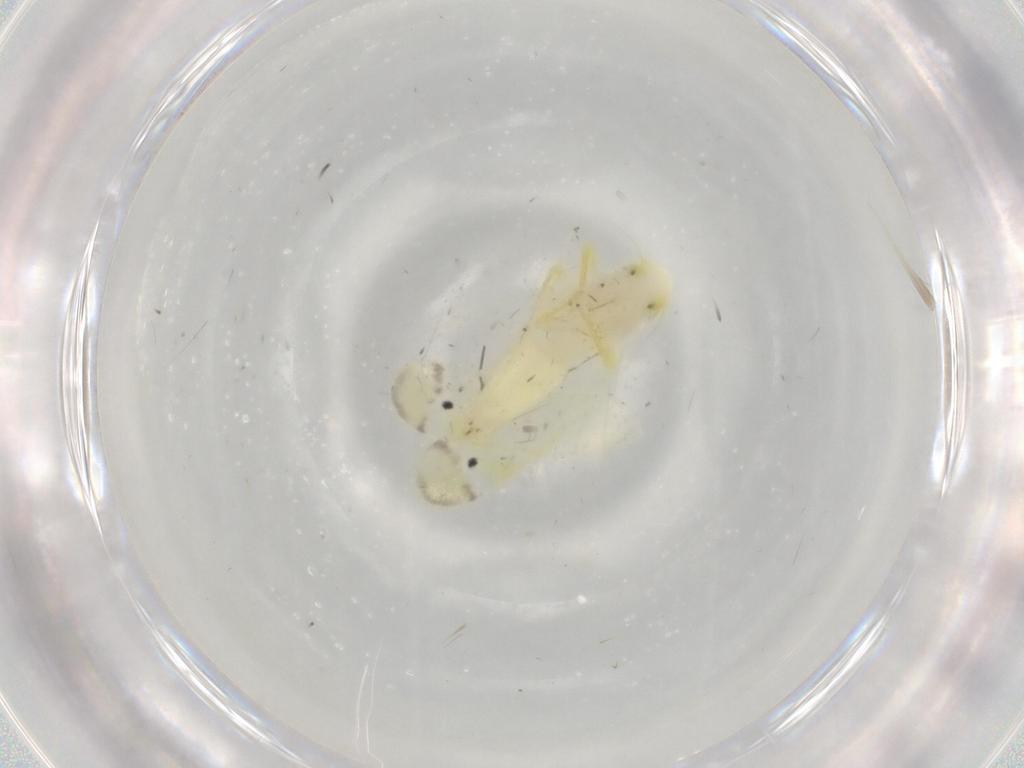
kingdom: Animalia
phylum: Arthropoda
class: Insecta
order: Hemiptera
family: Cicadellidae
